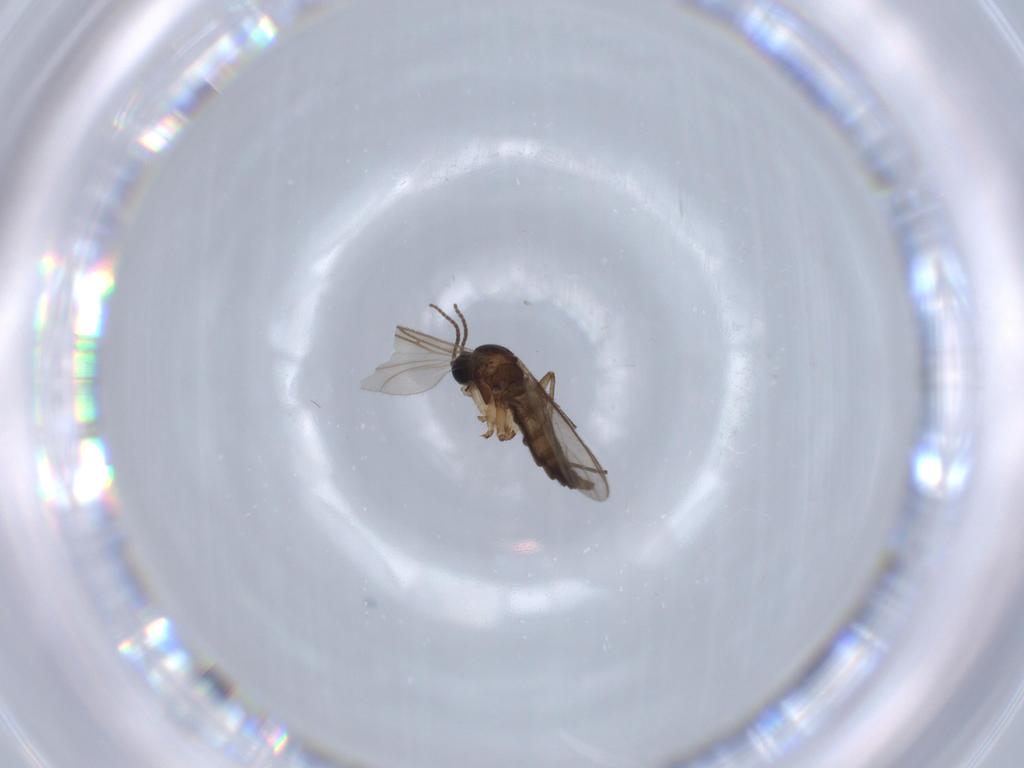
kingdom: Animalia
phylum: Arthropoda
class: Insecta
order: Diptera
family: Sciaridae
